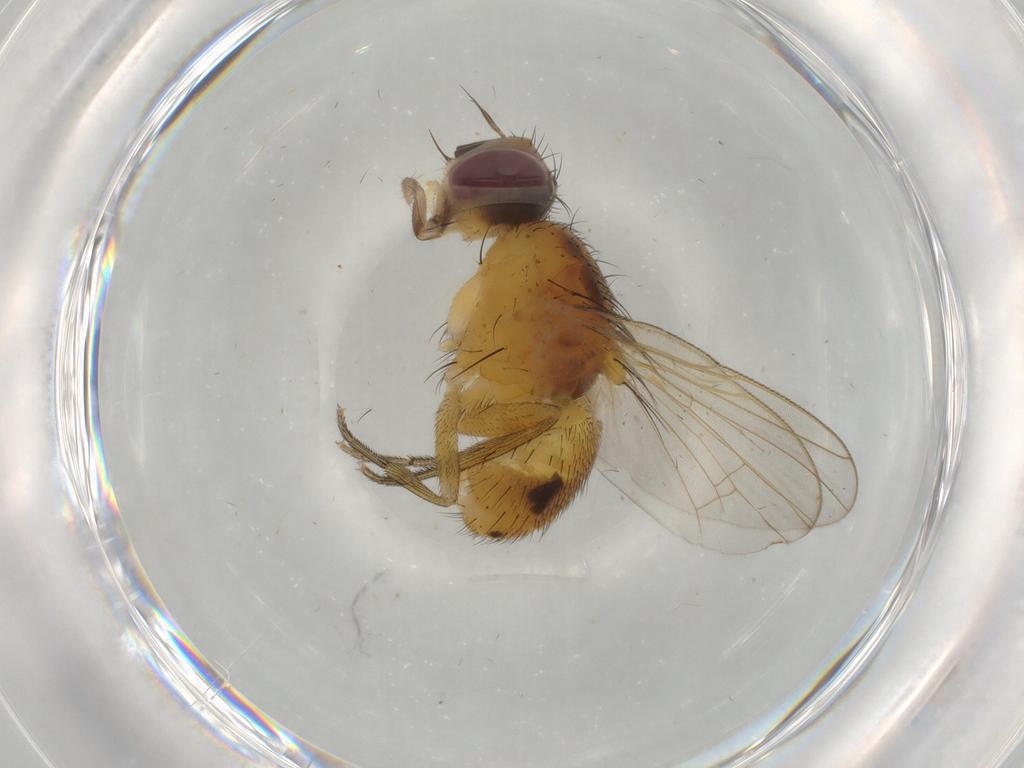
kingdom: Animalia
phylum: Arthropoda
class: Insecta
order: Diptera
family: Muscidae
